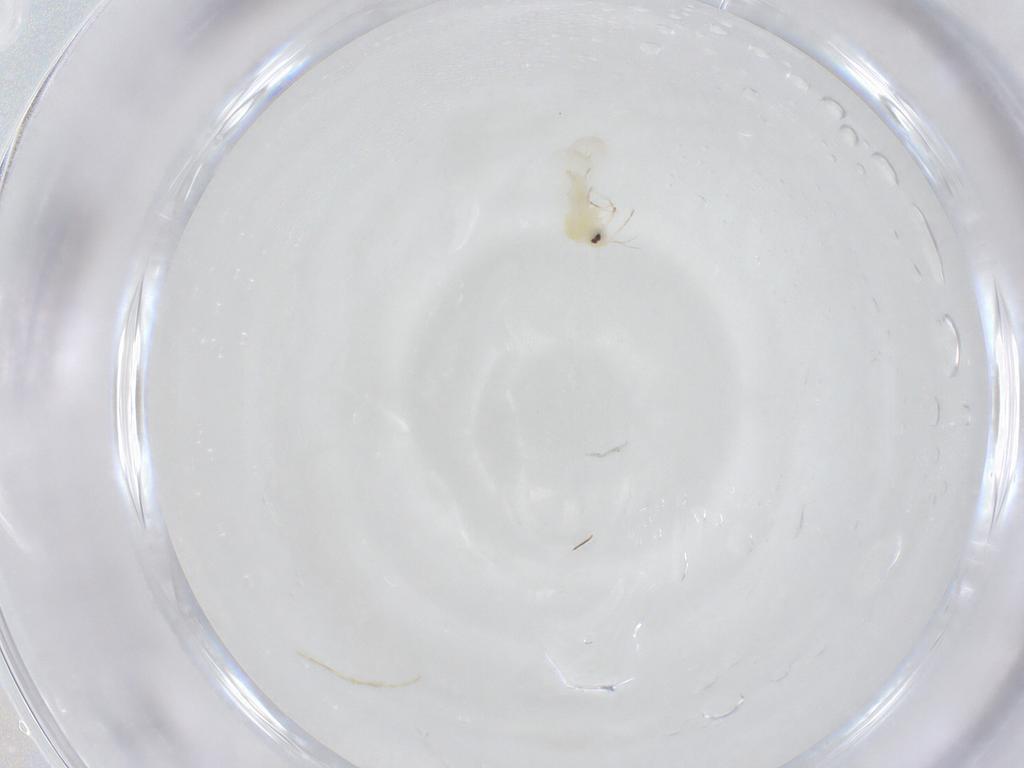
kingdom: Animalia
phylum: Arthropoda
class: Insecta
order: Hemiptera
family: Aleyrodidae
